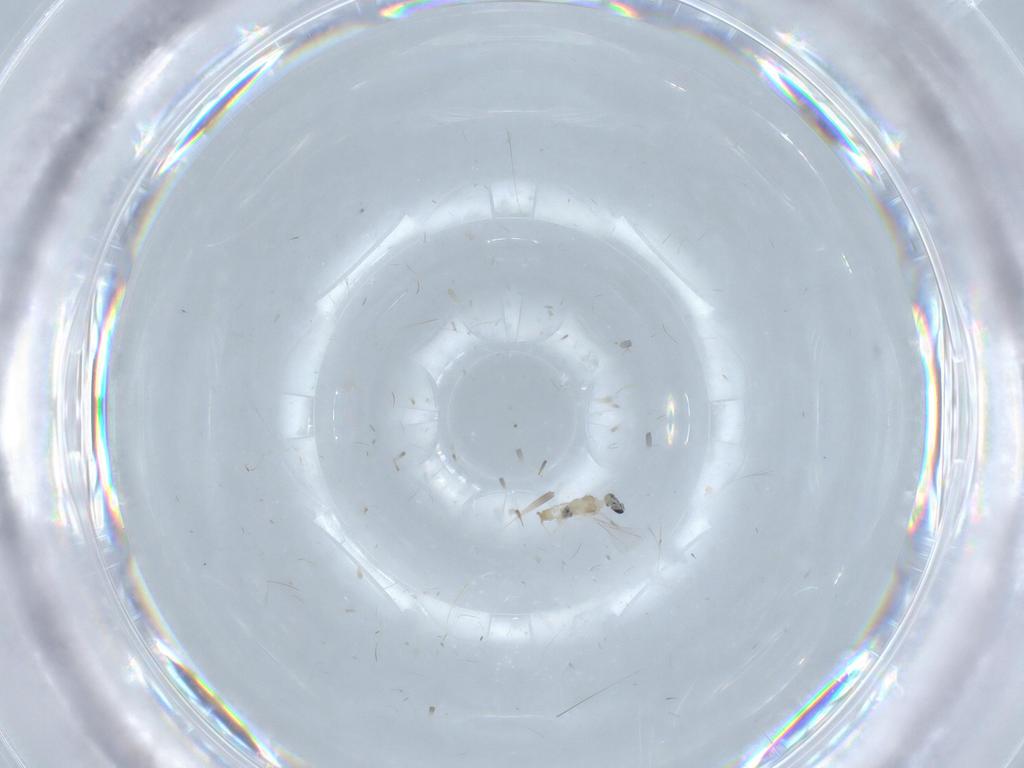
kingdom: Animalia
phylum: Arthropoda
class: Insecta
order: Diptera
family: Cecidomyiidae
